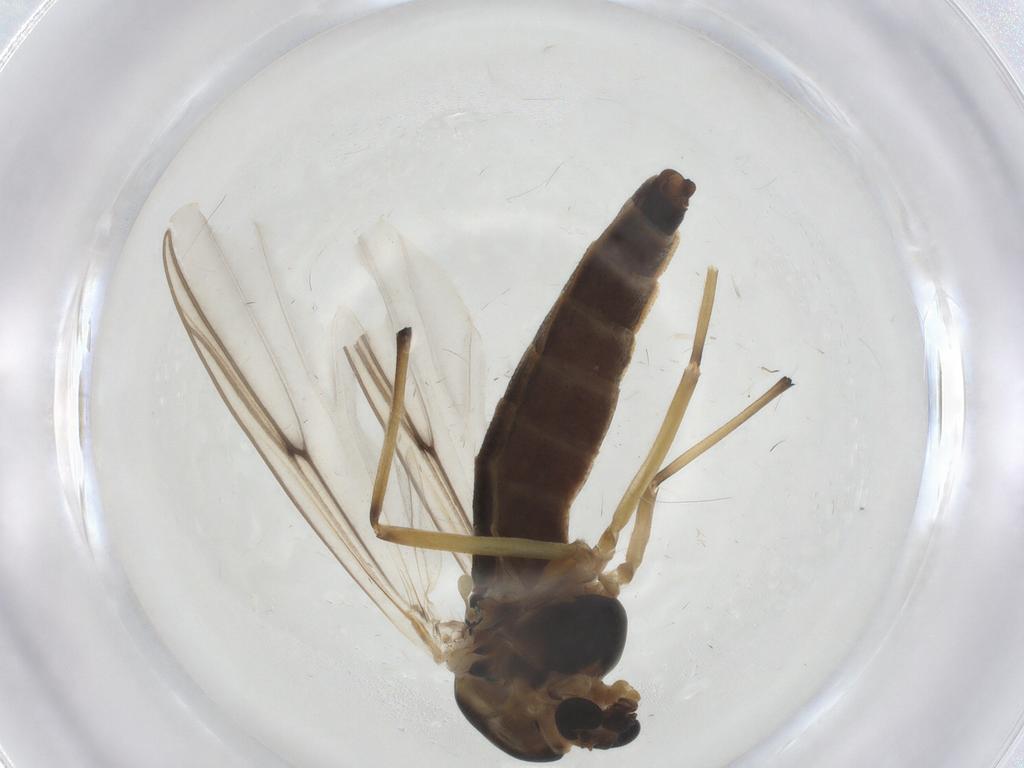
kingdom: Animalia
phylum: Arthropoda
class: Insecta
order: Diptera
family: Chironomidae
